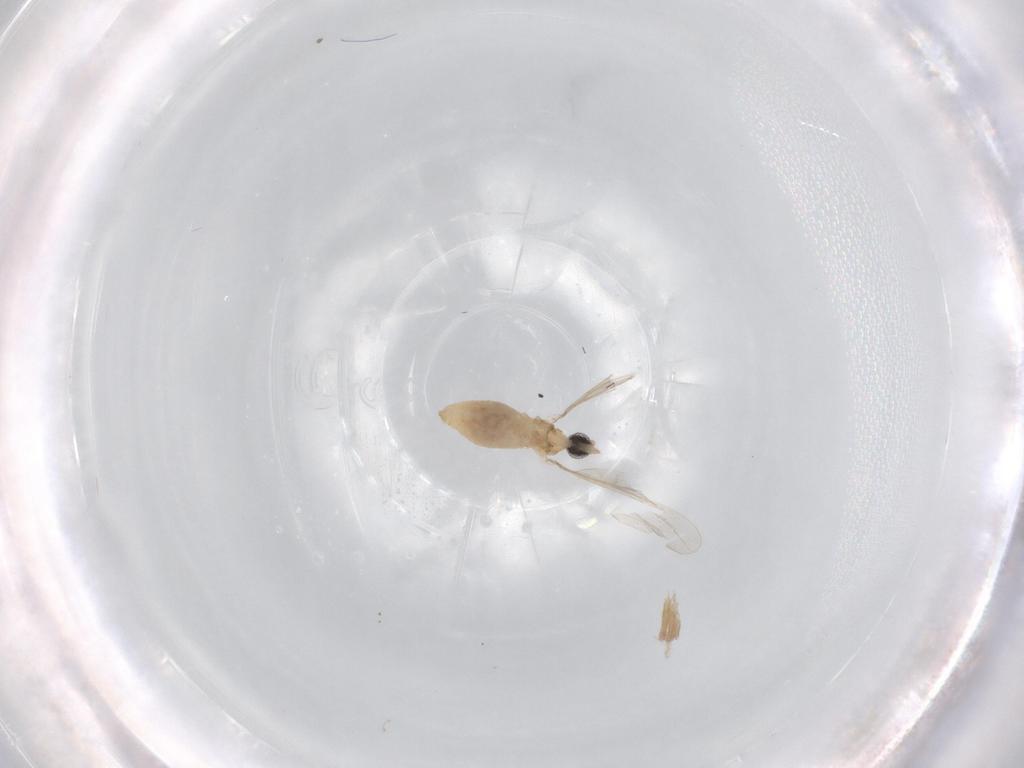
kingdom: Animalia
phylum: Arthropoda
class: Insecta
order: Diptera
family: Cecidomyiidae
